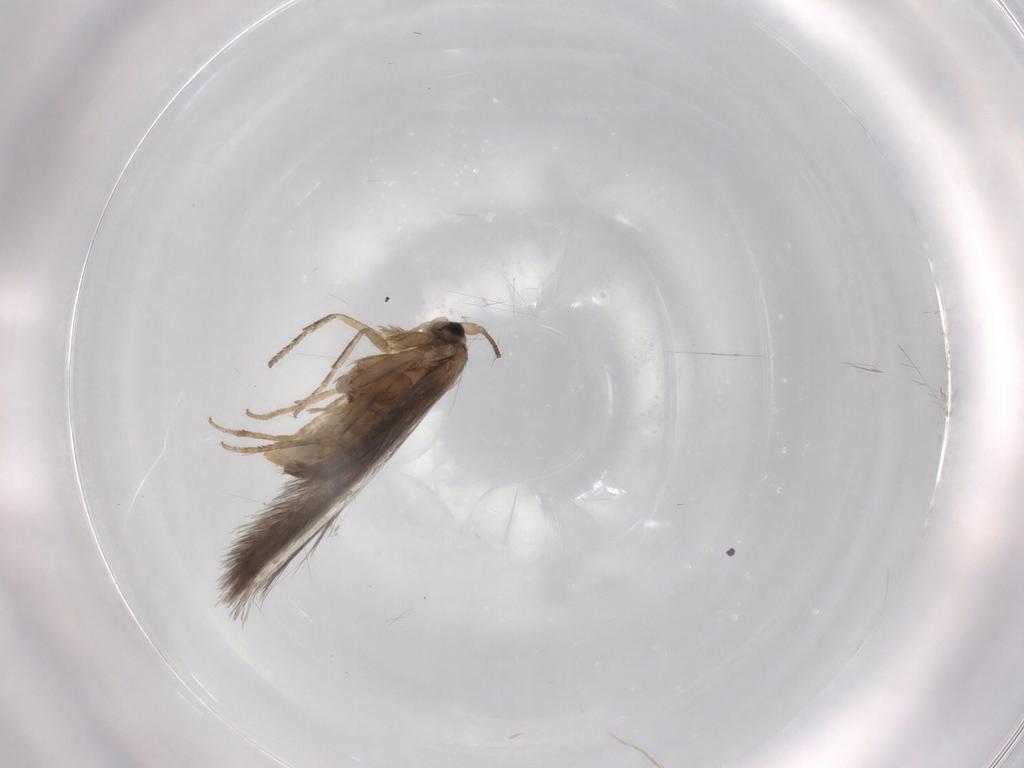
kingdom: Animalia
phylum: Arthropoda
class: Insecta
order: Lepidoptera
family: Nepticulidae
